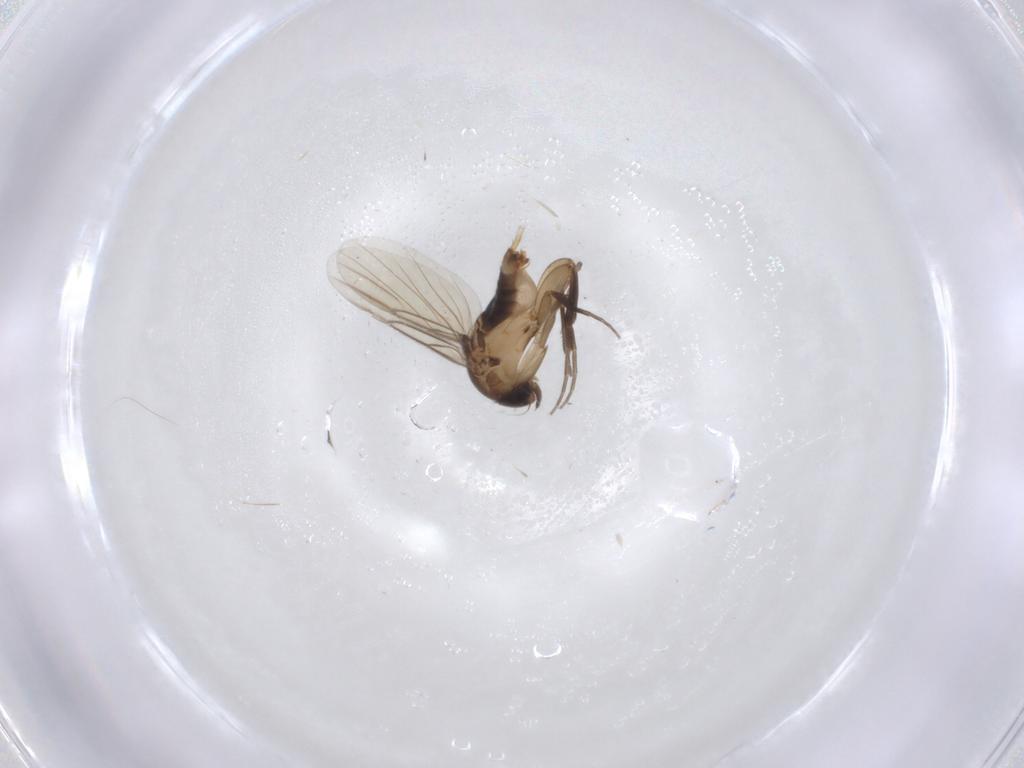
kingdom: Animalia
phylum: Arthropoda
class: Insecta
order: Diptera
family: Phoridae
